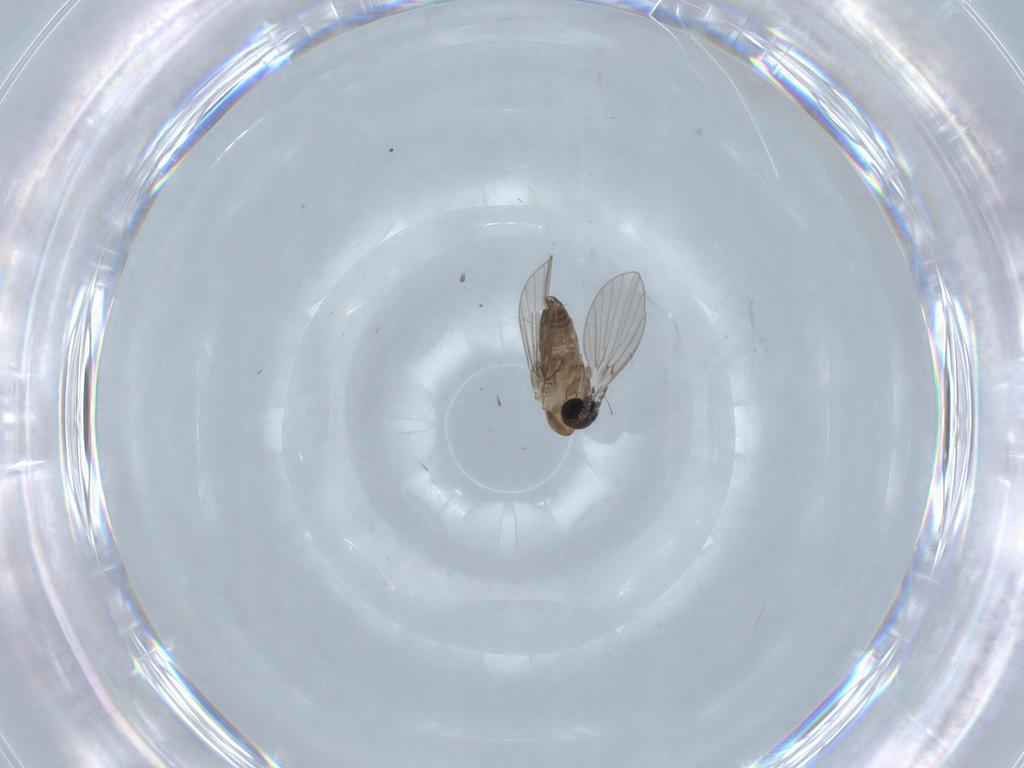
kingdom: Animalia
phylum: Arthropoda
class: Insecta
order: Diptera
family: Psychodidae
